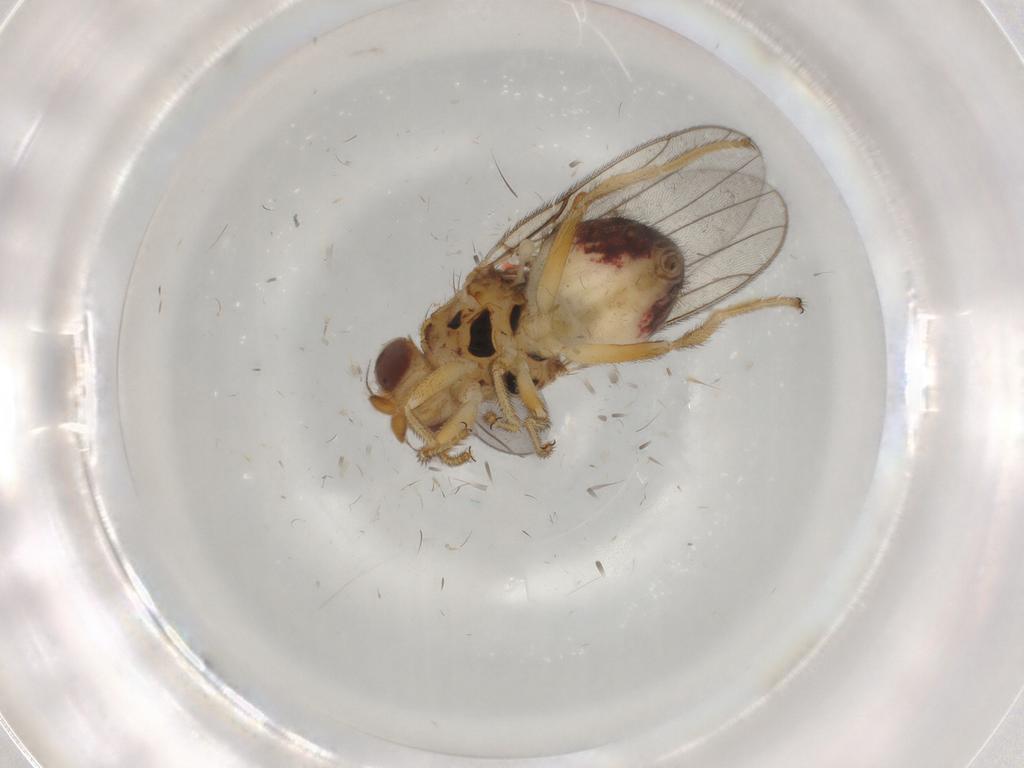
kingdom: Animalia
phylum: Arthropoda
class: Insecta
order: Diptera
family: Chloropidae
